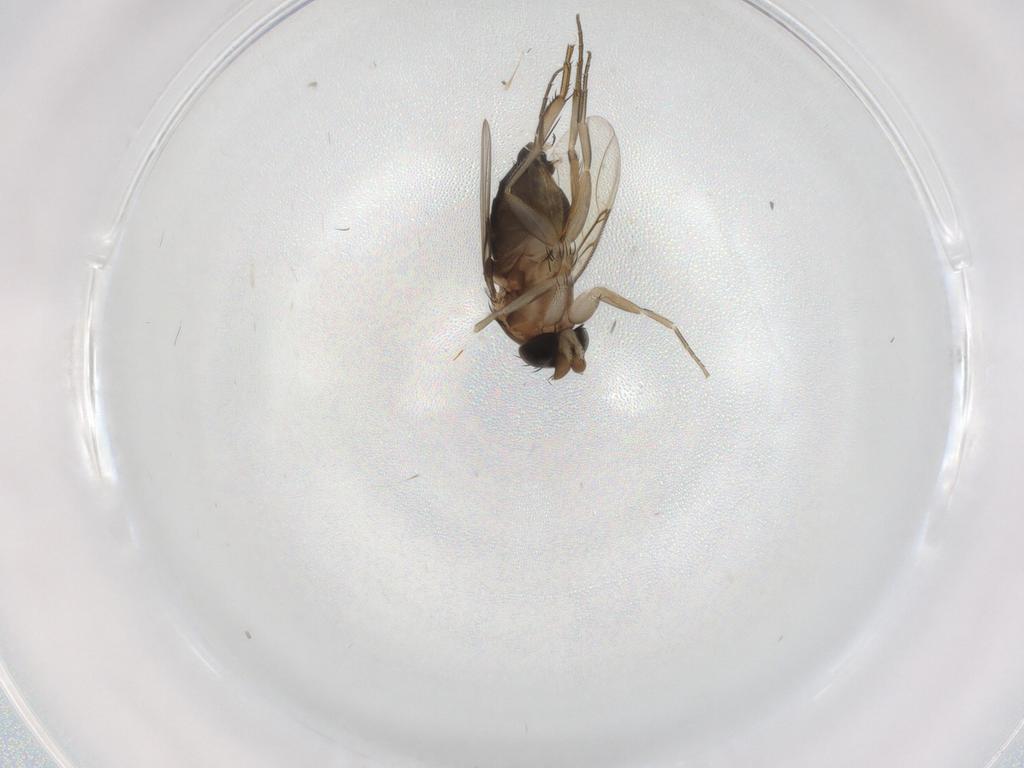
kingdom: Animalia
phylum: Arthropoda
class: Insecta
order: Diptera
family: Phoridae
